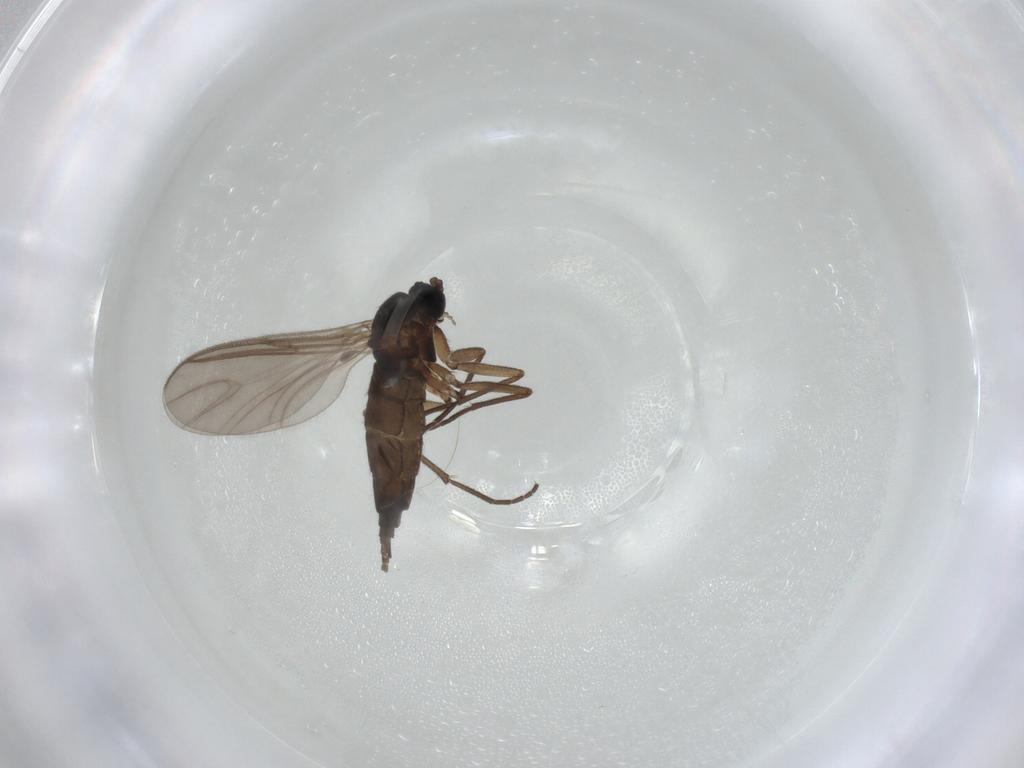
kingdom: Animalia
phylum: Arthropoda
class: Insecta
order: Diptera
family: Sciaridae
